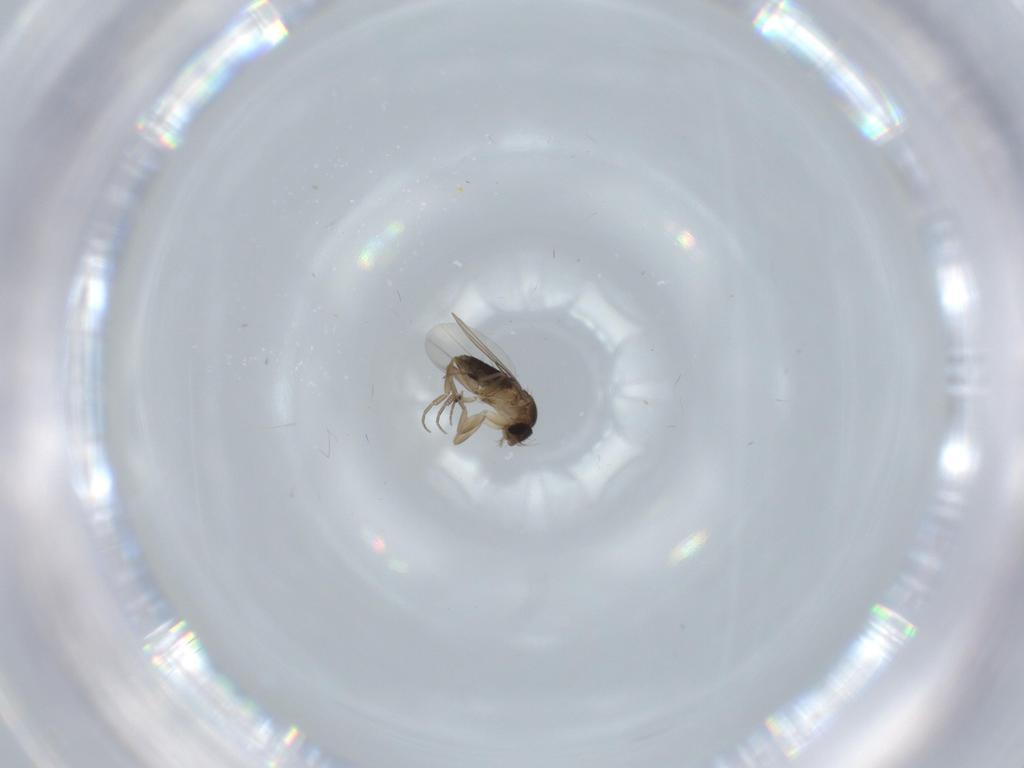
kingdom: Animalia
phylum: Arthropoda
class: Insecta
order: Diptera
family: Phoridae
